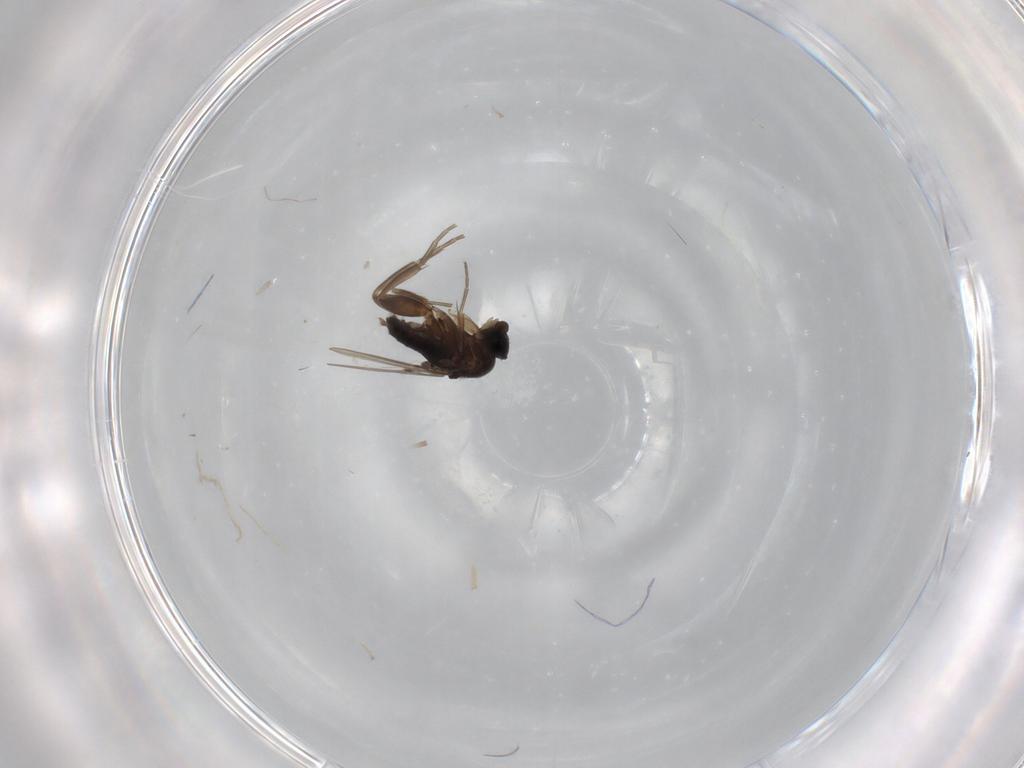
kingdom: Animalia
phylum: Arthropoda
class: Insecta
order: Diptera
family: Phoridae
